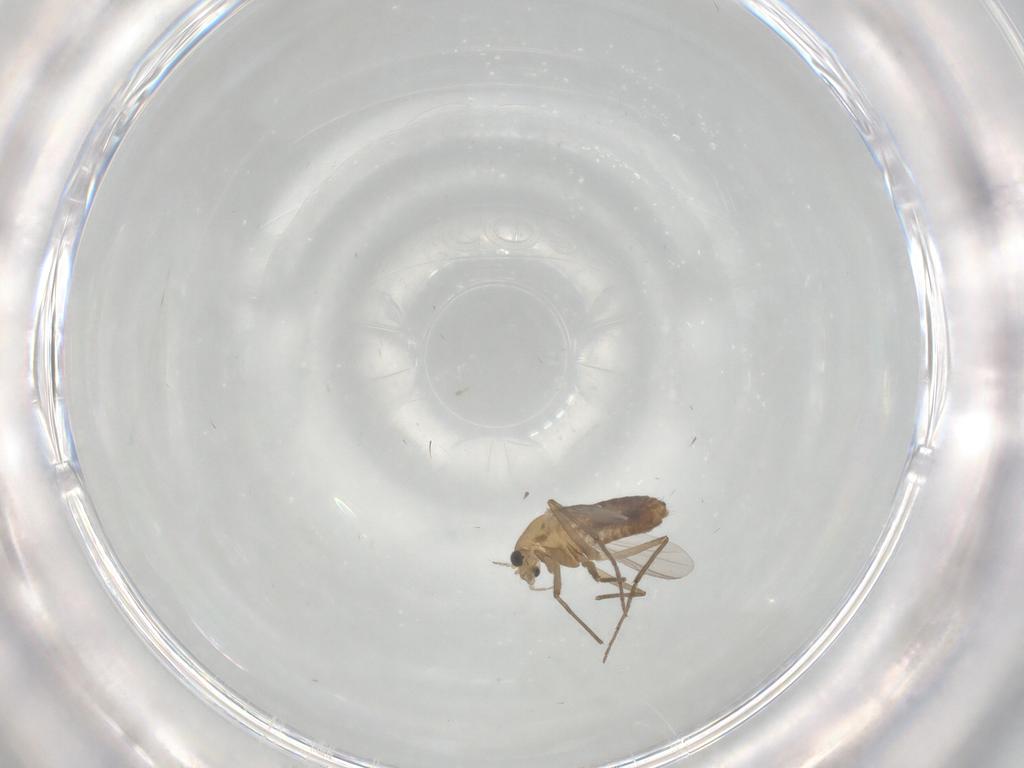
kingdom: Animalia
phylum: Arthropoda
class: Insecta
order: Diptera
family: Chironomidae
